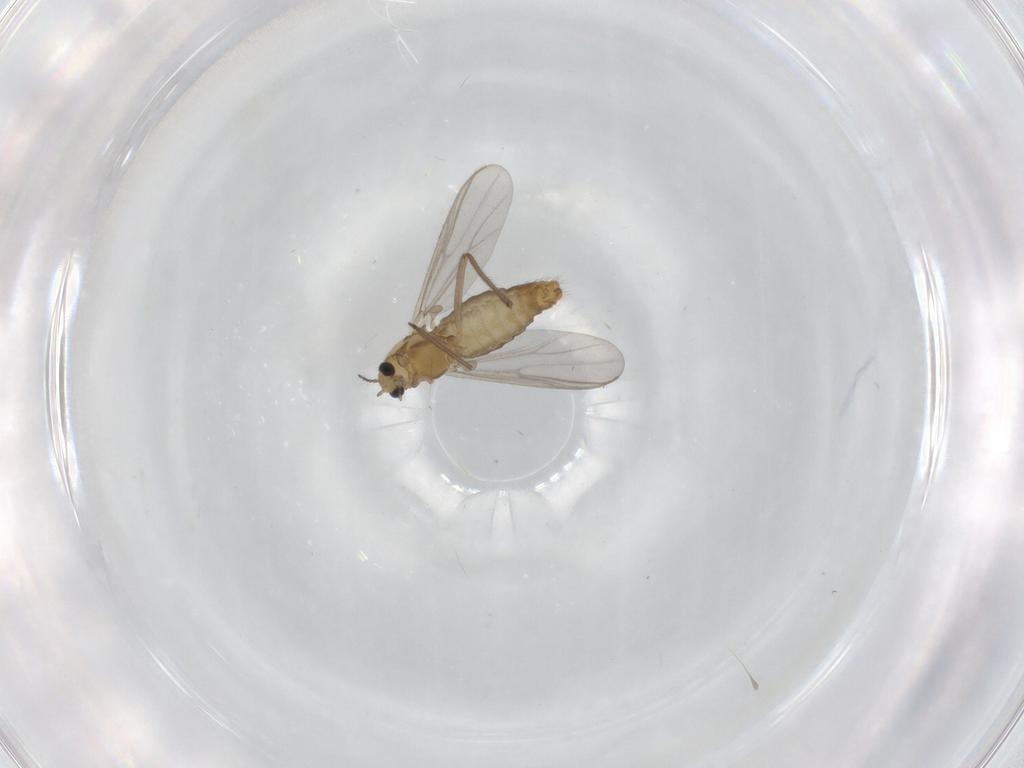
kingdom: Animalia
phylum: Arthropoda
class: Insecta
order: Diptera
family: Chironomidae
